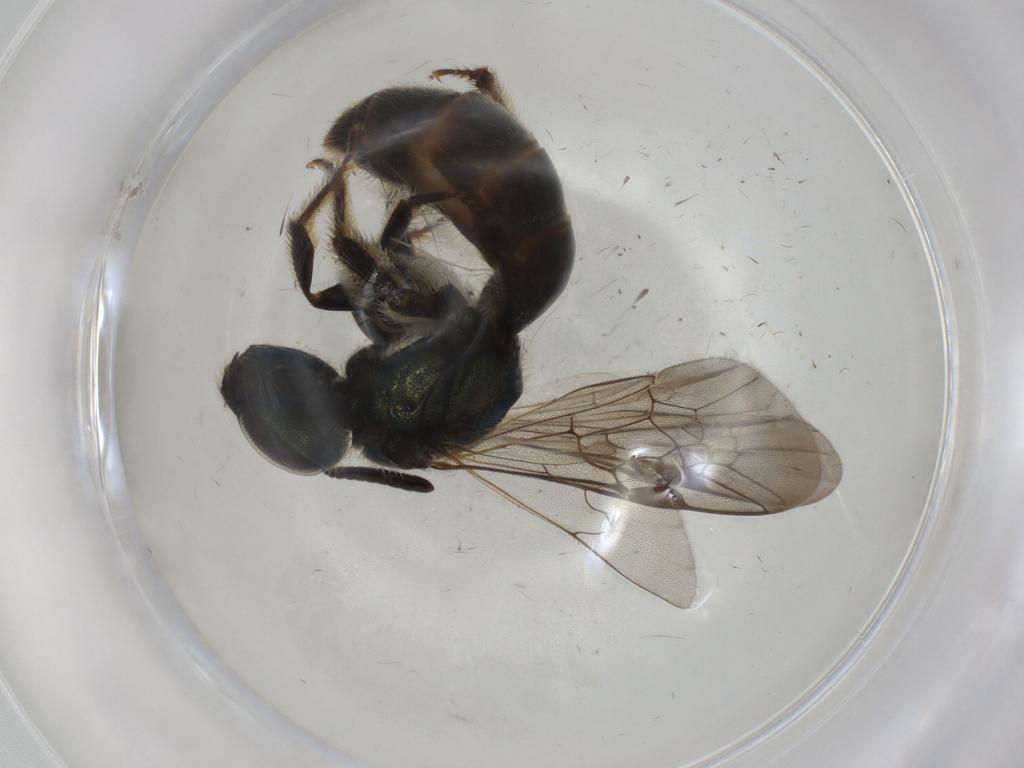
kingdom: Animalia
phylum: Arthropoda
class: Insecta
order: Hymenoptera
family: Halictidae
